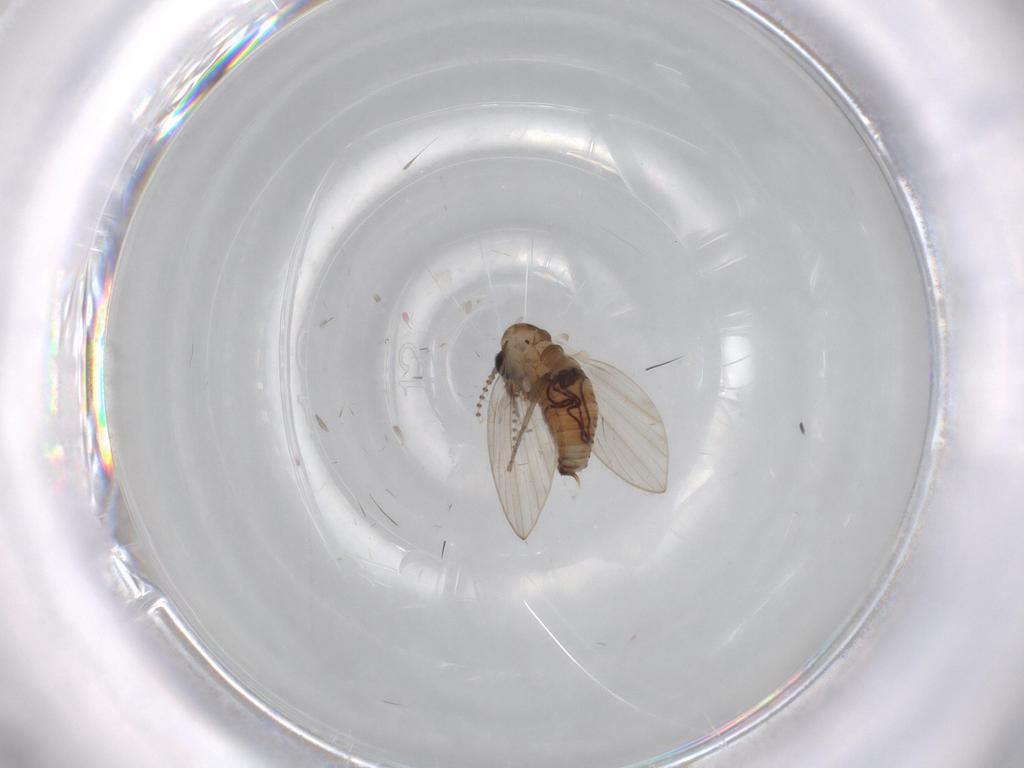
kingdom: Animalia
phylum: Arthropoda
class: Insecta
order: Diptera
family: Psychodidae
